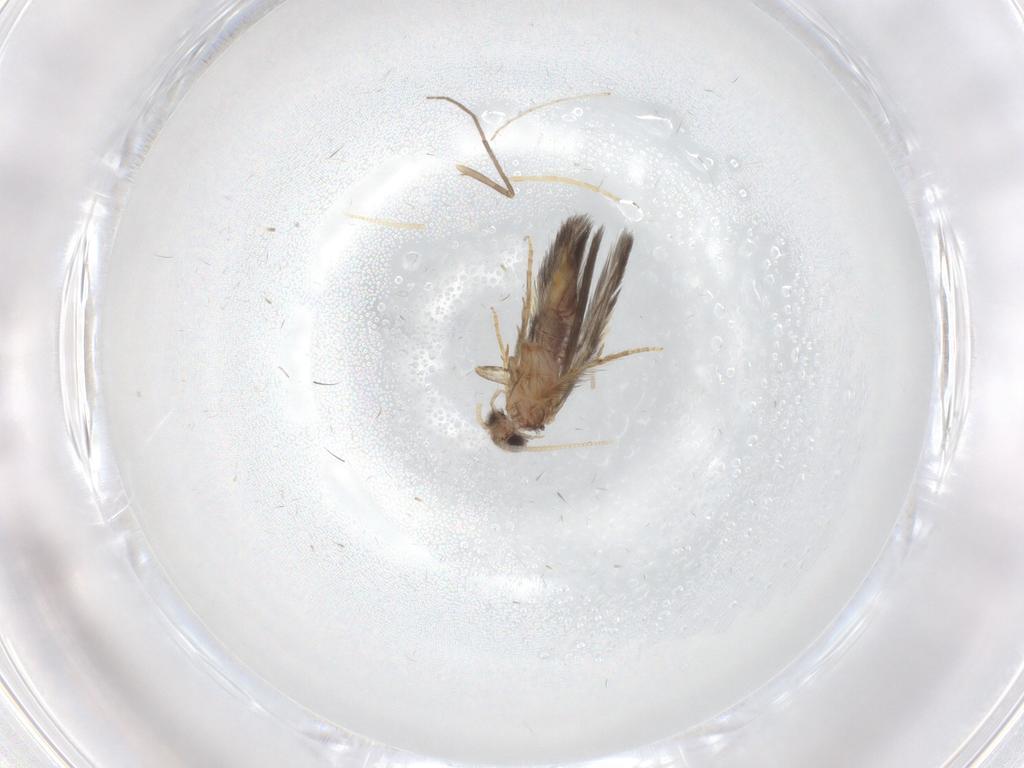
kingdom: Animalia
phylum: Arthropoda
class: Insecta
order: Trichoptera
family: Hydroptilidae
